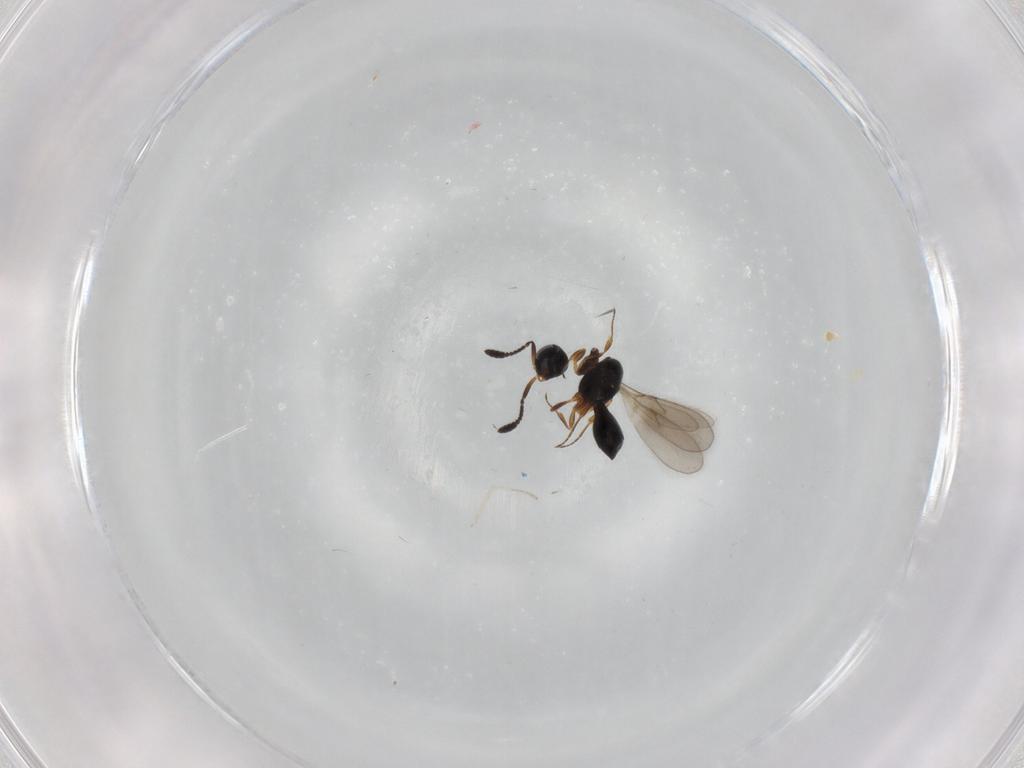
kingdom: Animalia
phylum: Arthropoda
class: Insecta
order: Hymenoptera
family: Scelionidae
